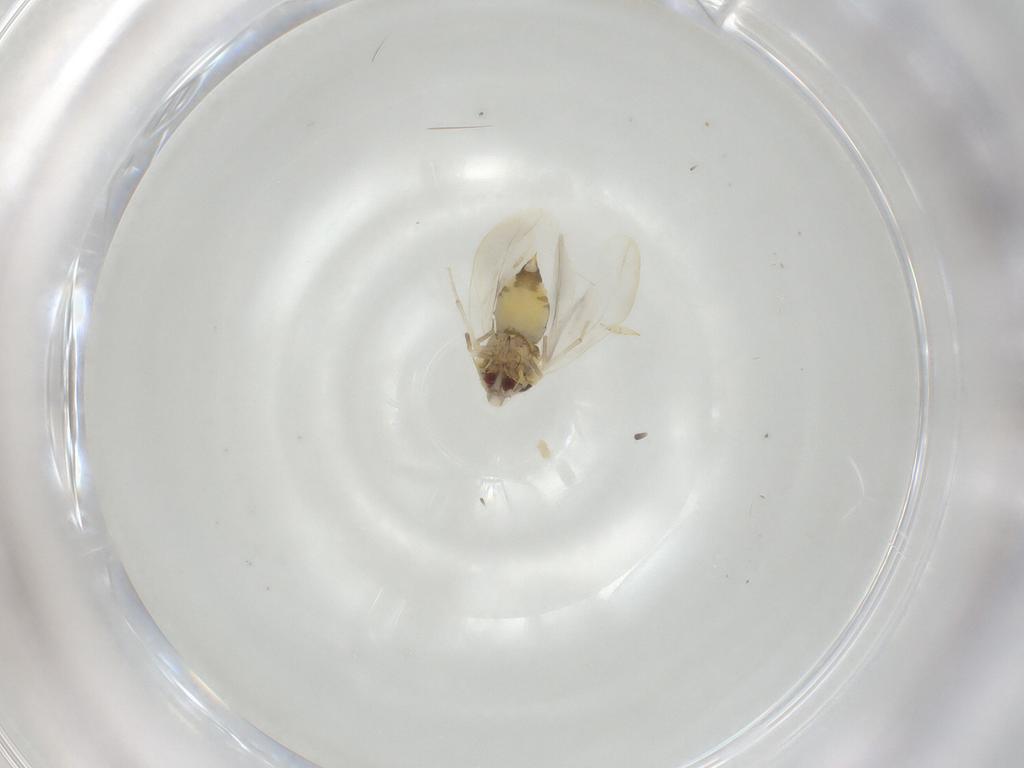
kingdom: Animalia
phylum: Arthropoda
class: Insecta
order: Hemiptera
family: Aleyrodidae
